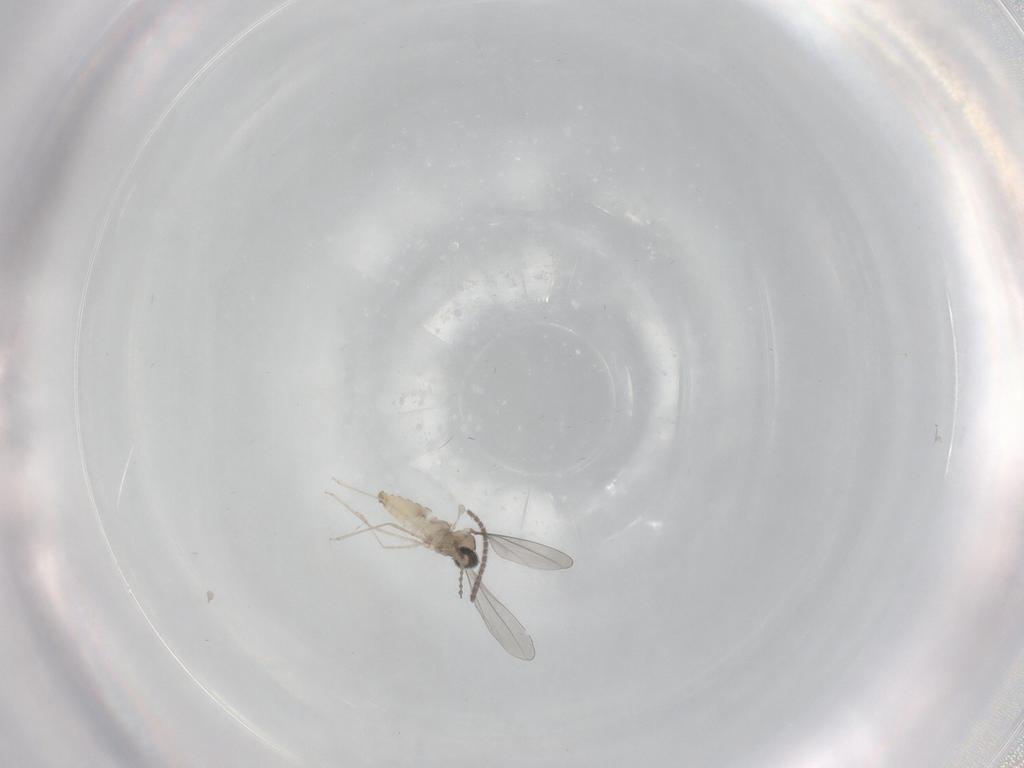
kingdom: Animalia
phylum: Arthropoda
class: Insecta
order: Diptera
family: Sciaridae
